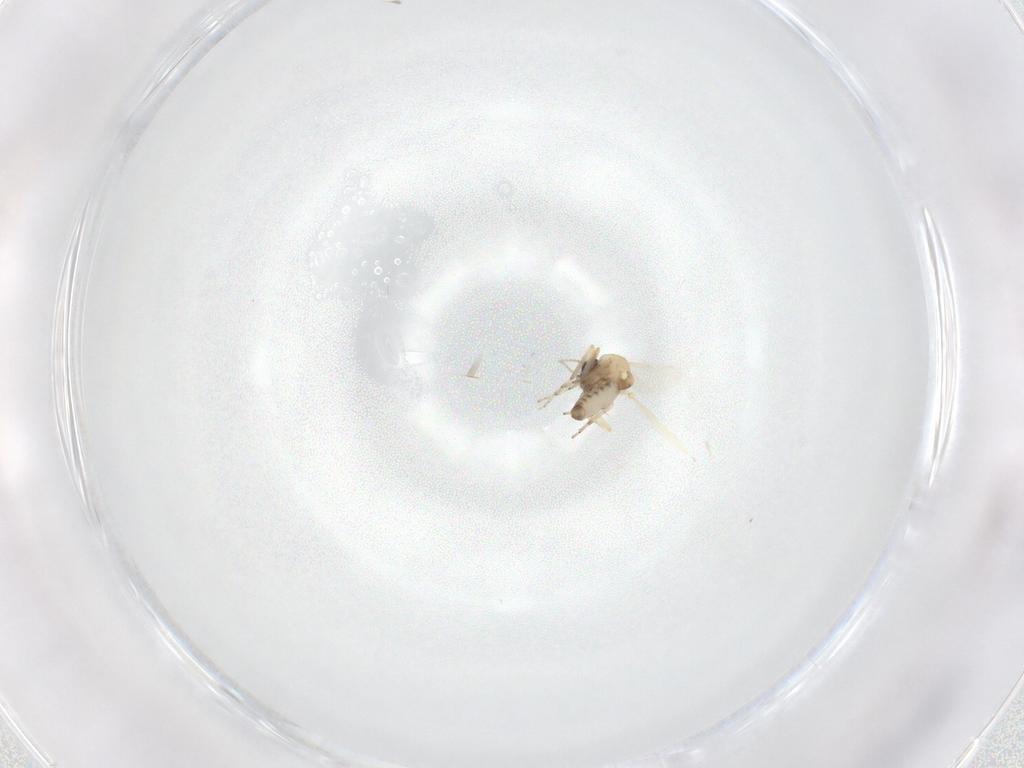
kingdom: Animalia
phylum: Arthropoda
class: Insecta
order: Diptera
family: Ceratopogonidae
